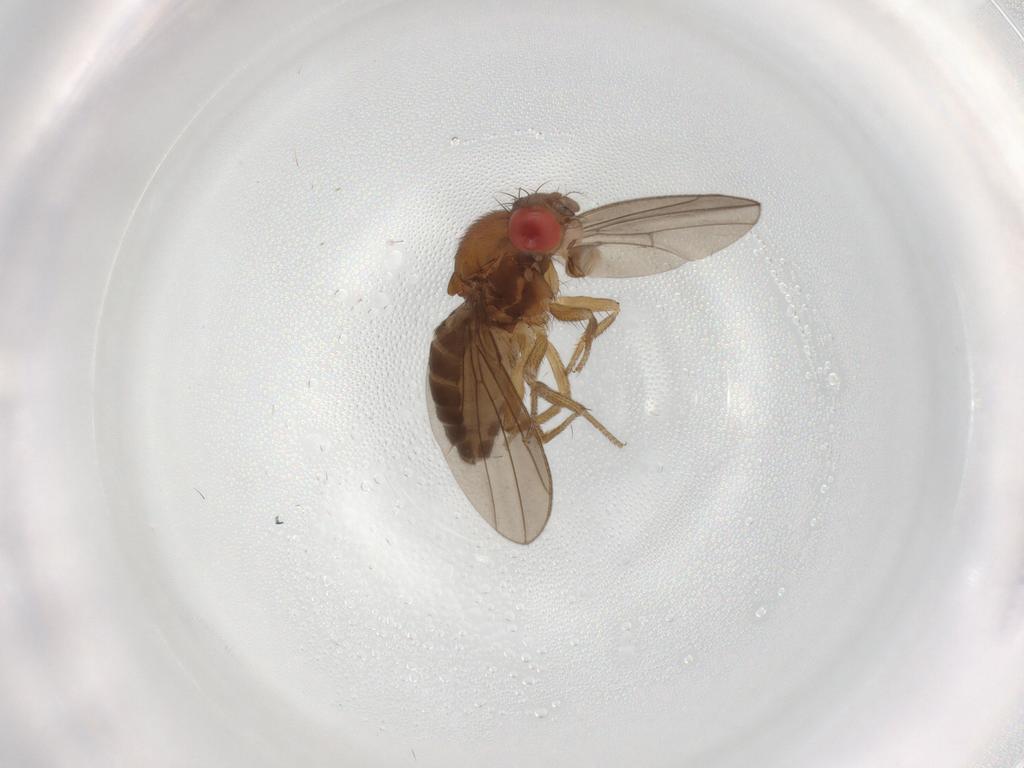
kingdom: Animalia
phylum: Arthropoda
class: Insecta
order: Diptera
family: Drosophilidae
